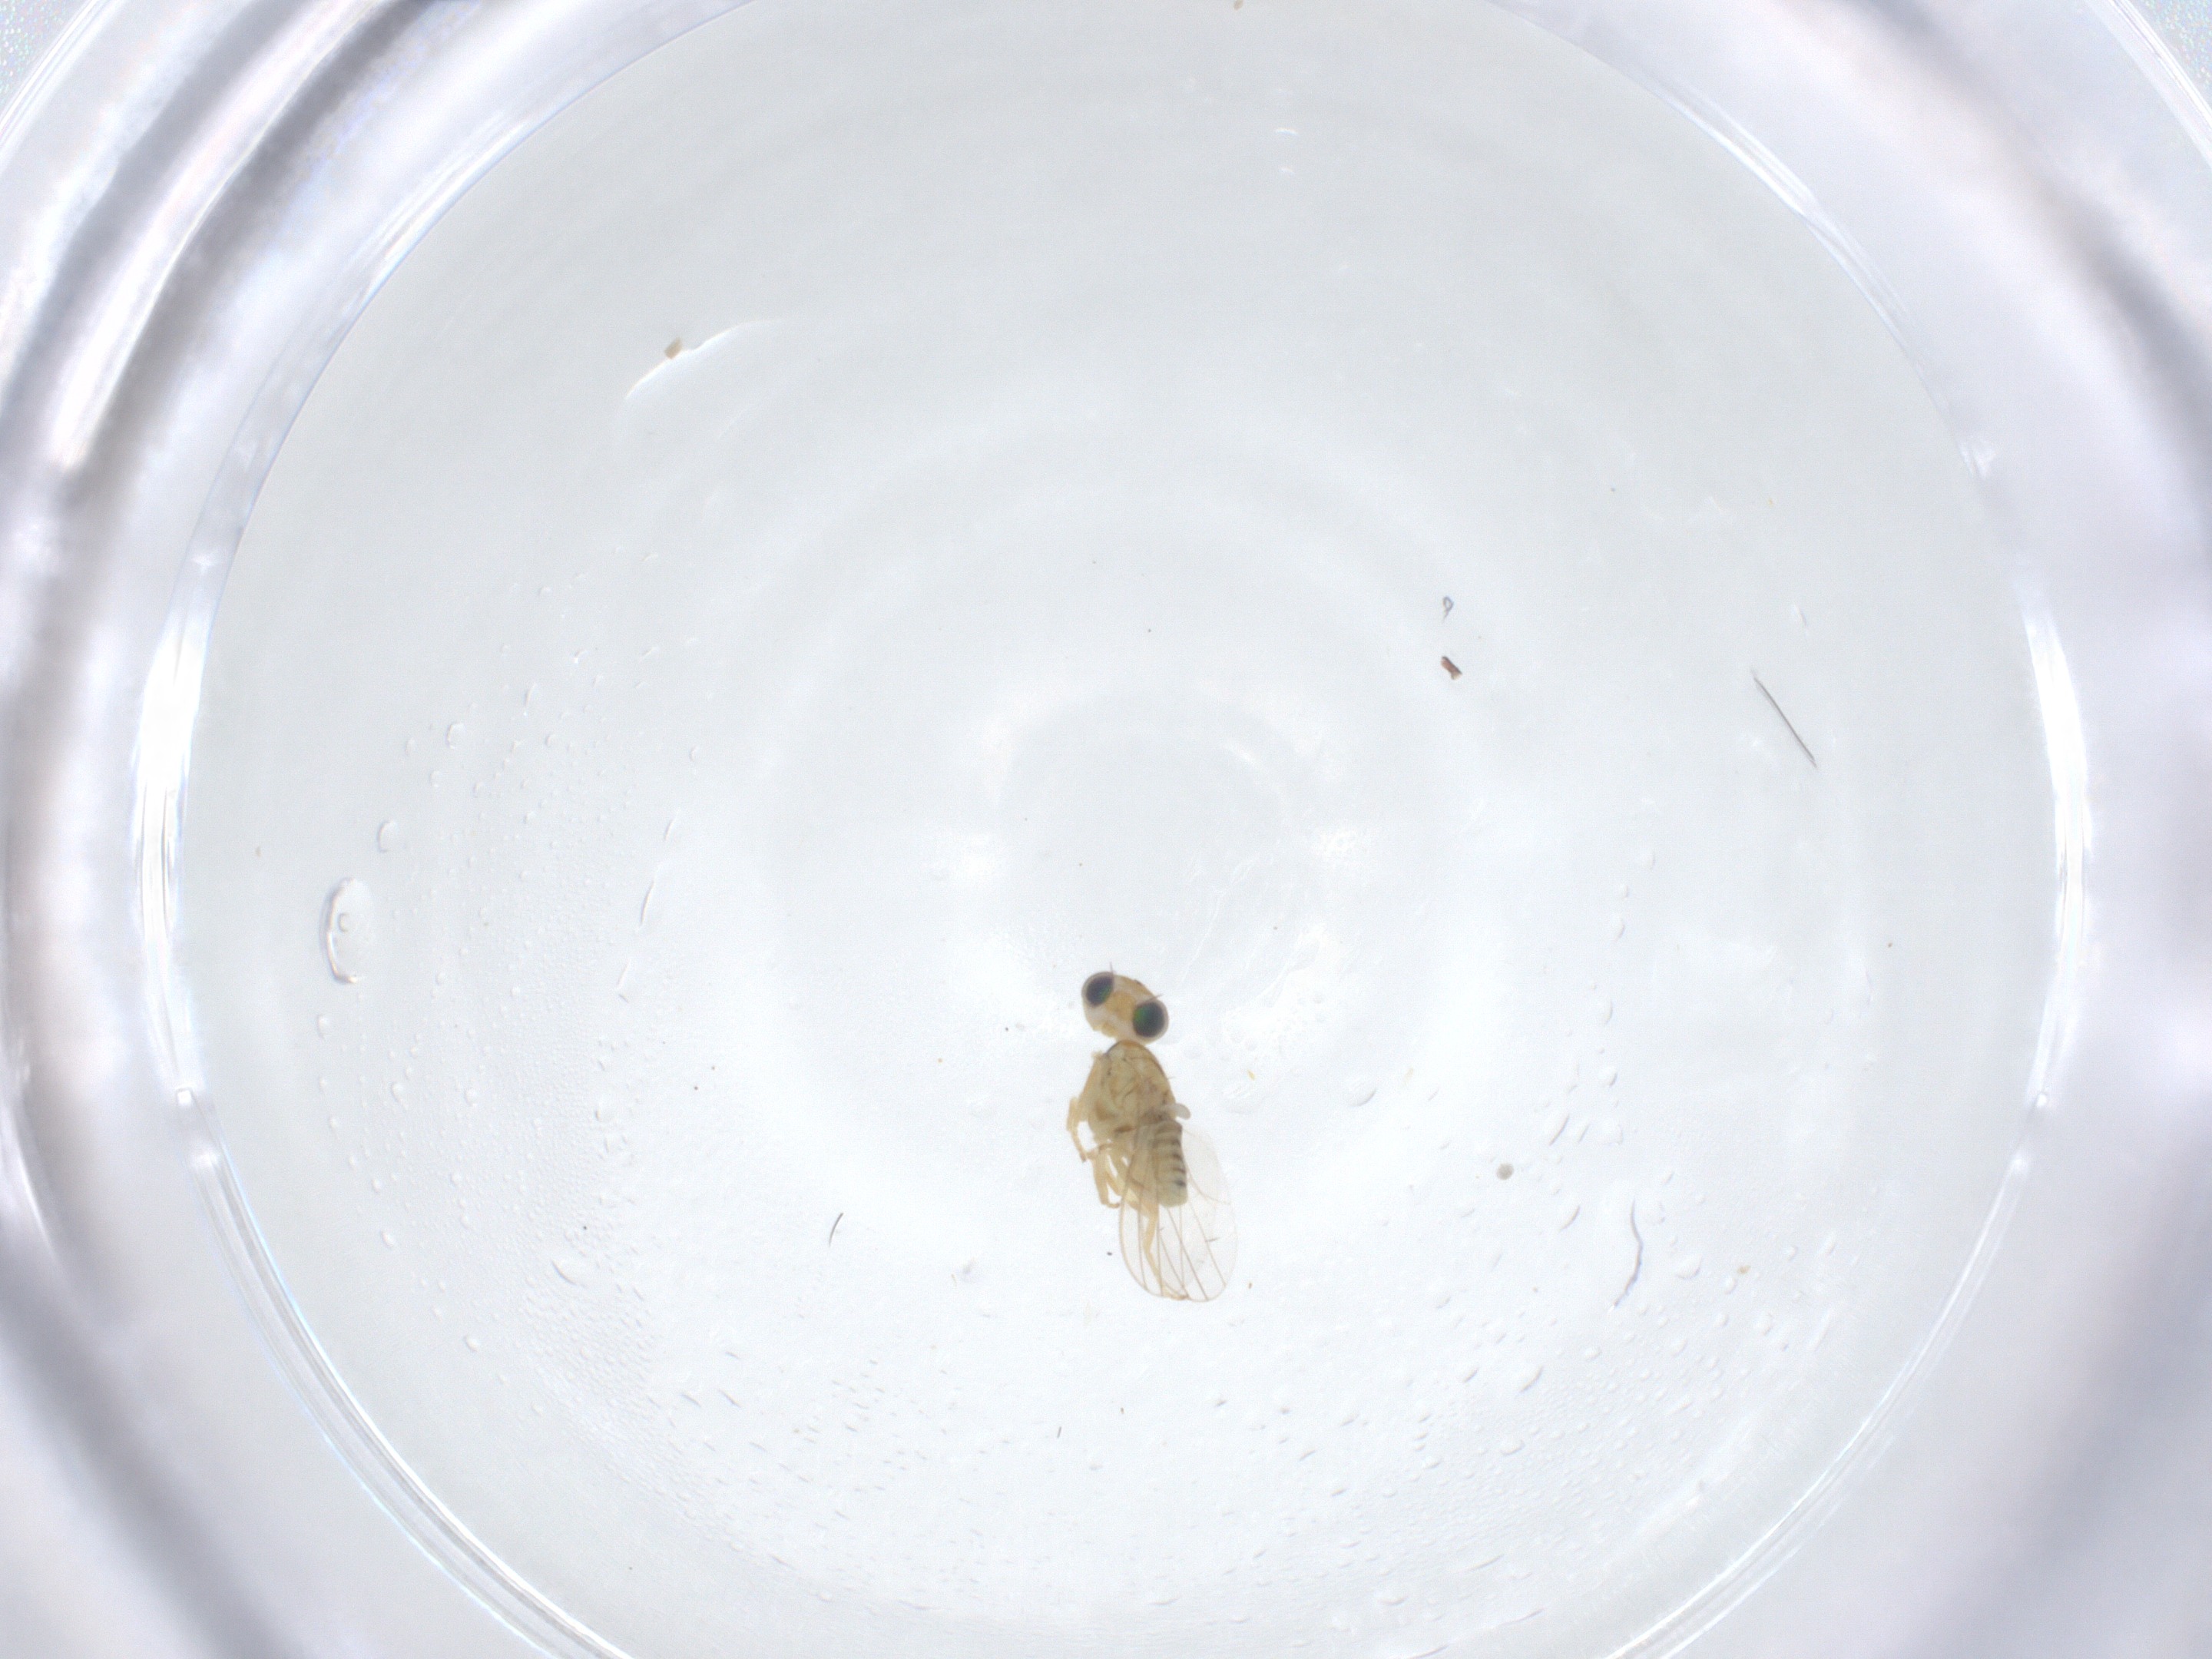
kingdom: Animalia
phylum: Arthropoda
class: Insecta
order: Diptera
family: Chyromyidae
